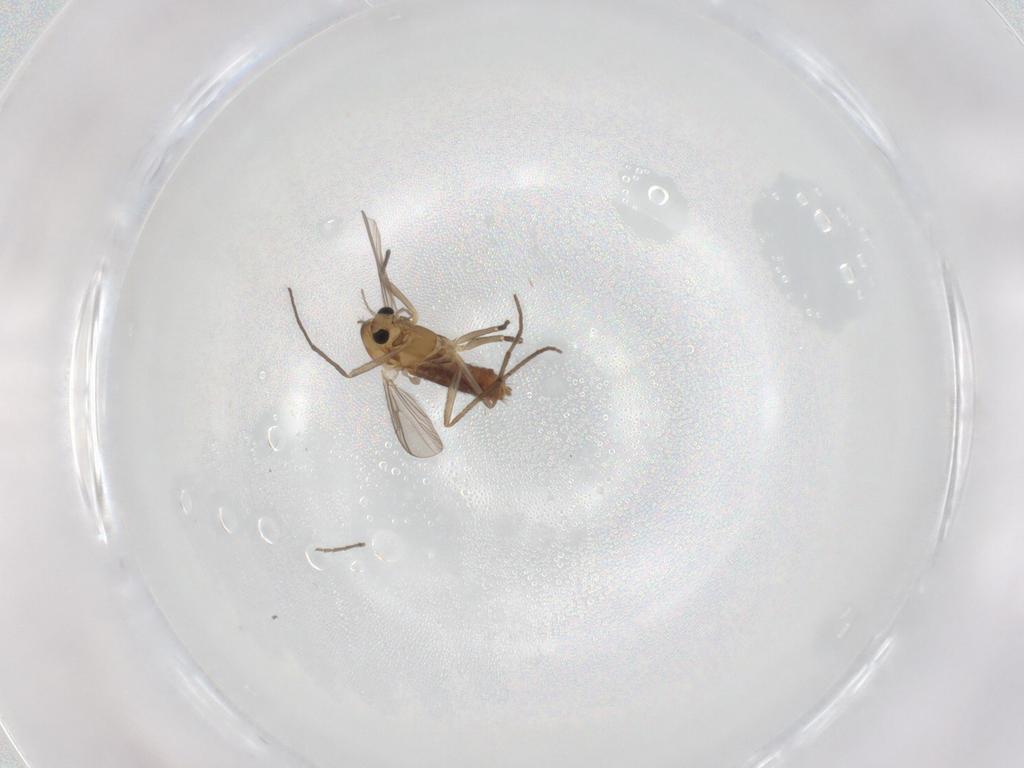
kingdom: Animalia
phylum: Arthropoda
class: Insecta
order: Diptera
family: Chironomidae
